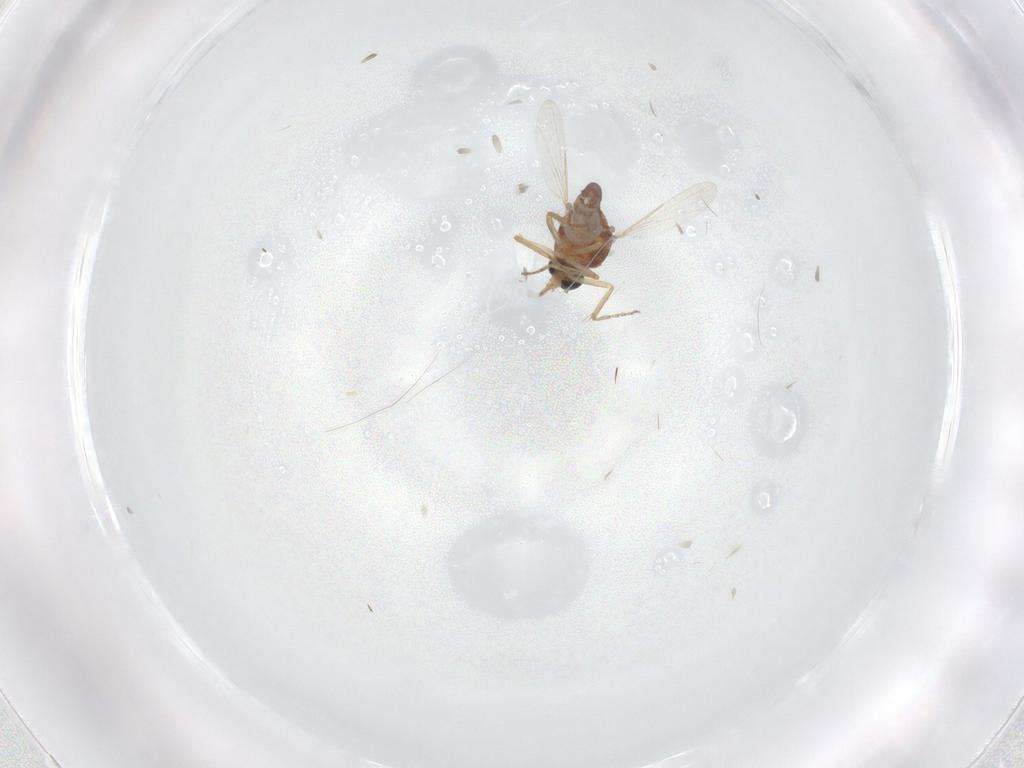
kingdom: Animalia
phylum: Arthropoda
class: Insecta
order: Diptera
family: Ceratopogonidae
